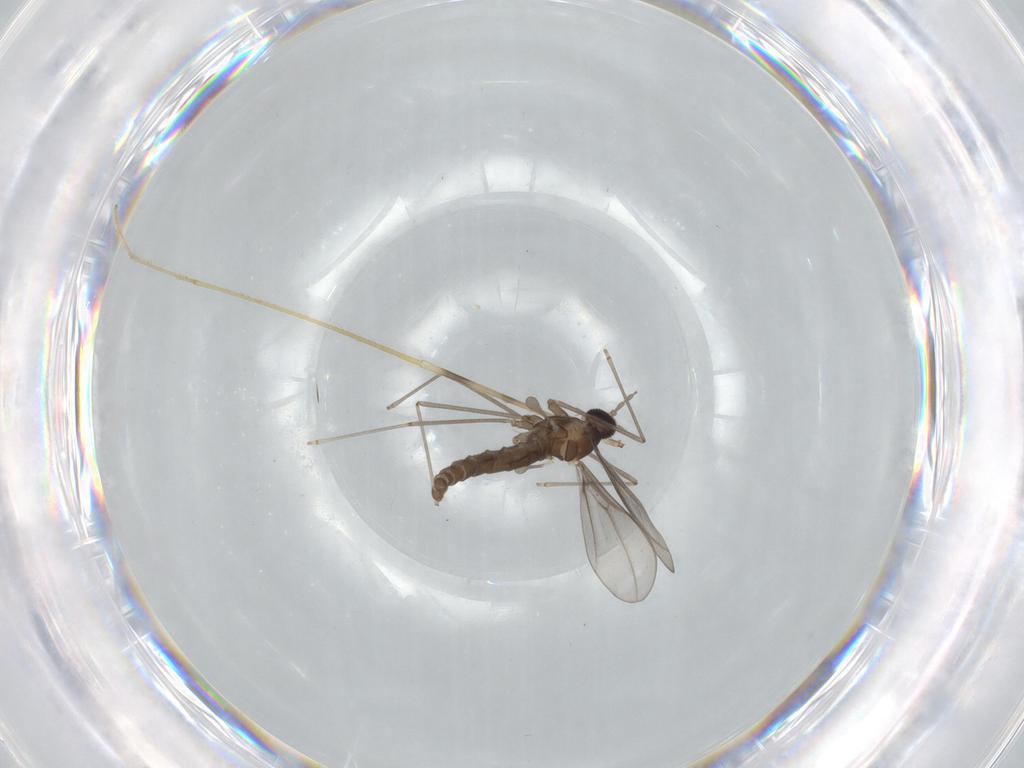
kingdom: Animalia
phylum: Arthropoda
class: Insecta
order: Diptera
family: Cecidomyiidae
